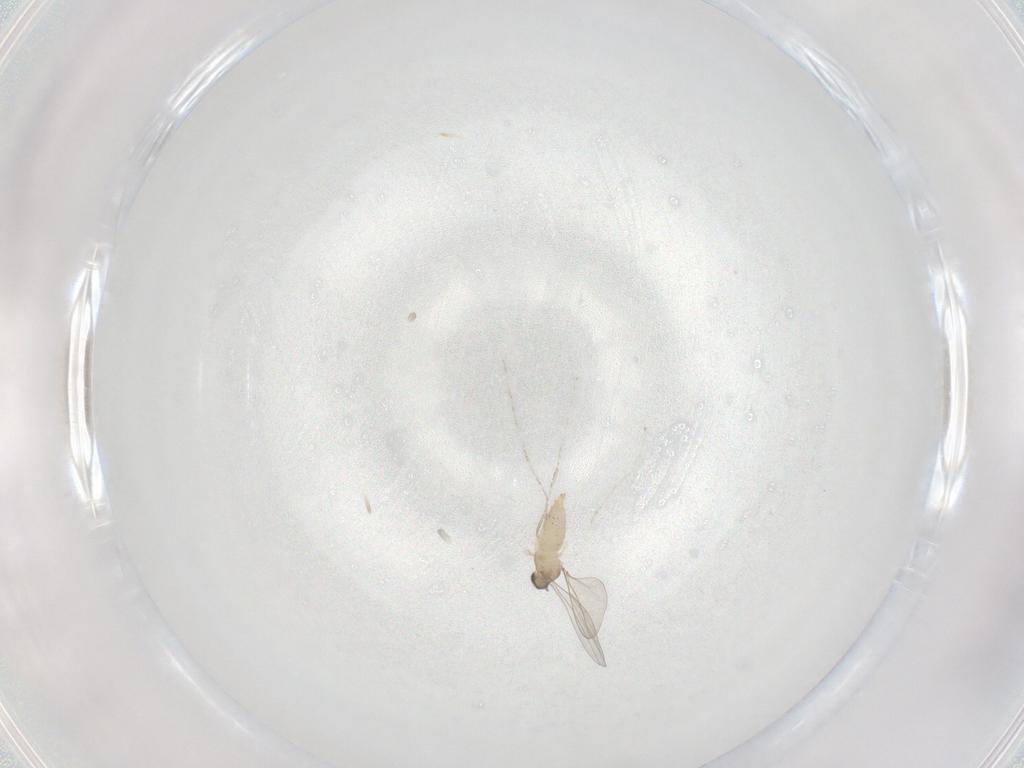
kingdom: Animalia
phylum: Arthropoda
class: Insecta
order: Diptera
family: Cecidomyiidae
